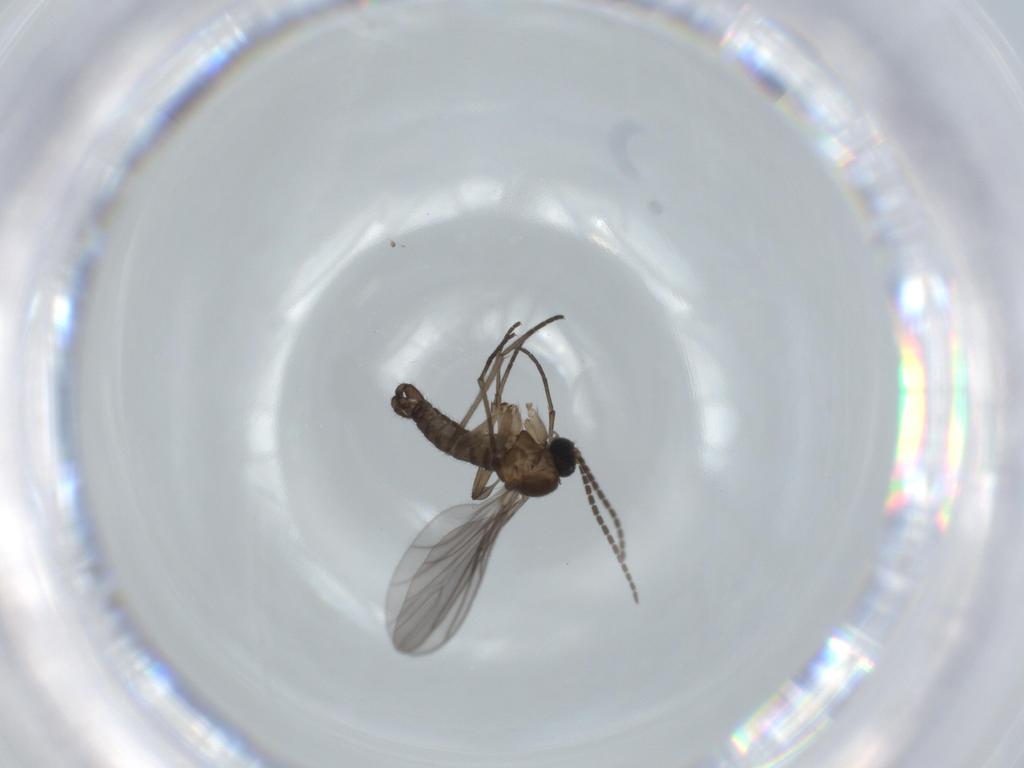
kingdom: Animalia
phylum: Arthropoda
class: Insecta
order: Diptera
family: Sciaridae
